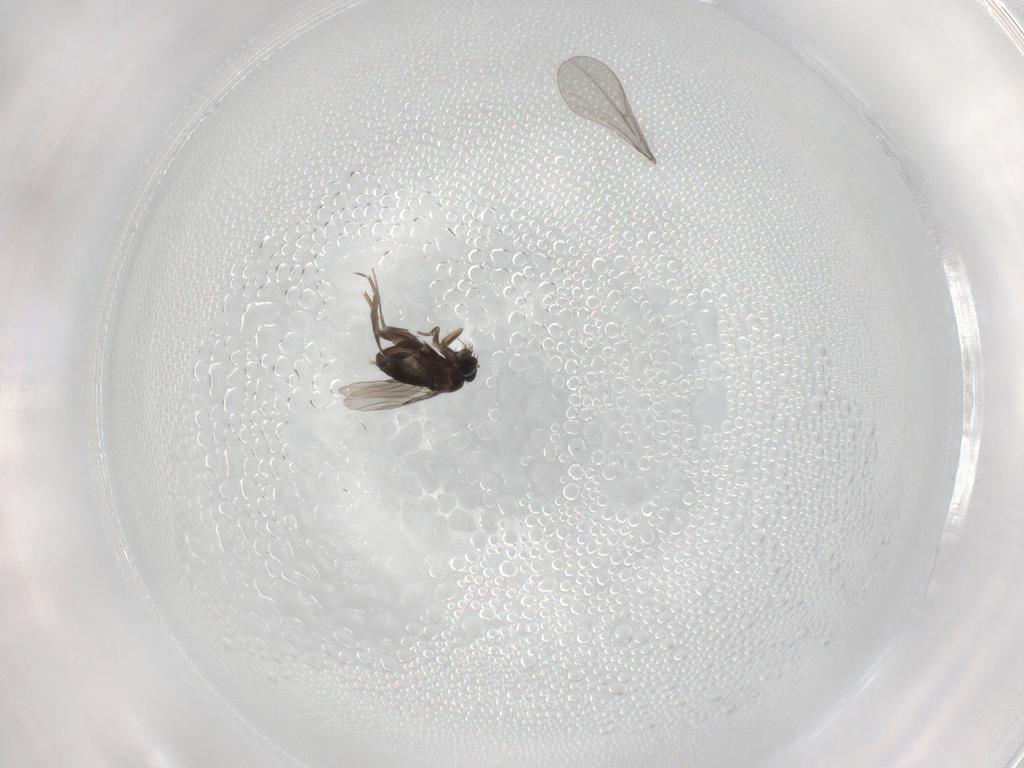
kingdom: Animalia
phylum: Arthropoda
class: Insecta
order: Diptera
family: Phoridae
